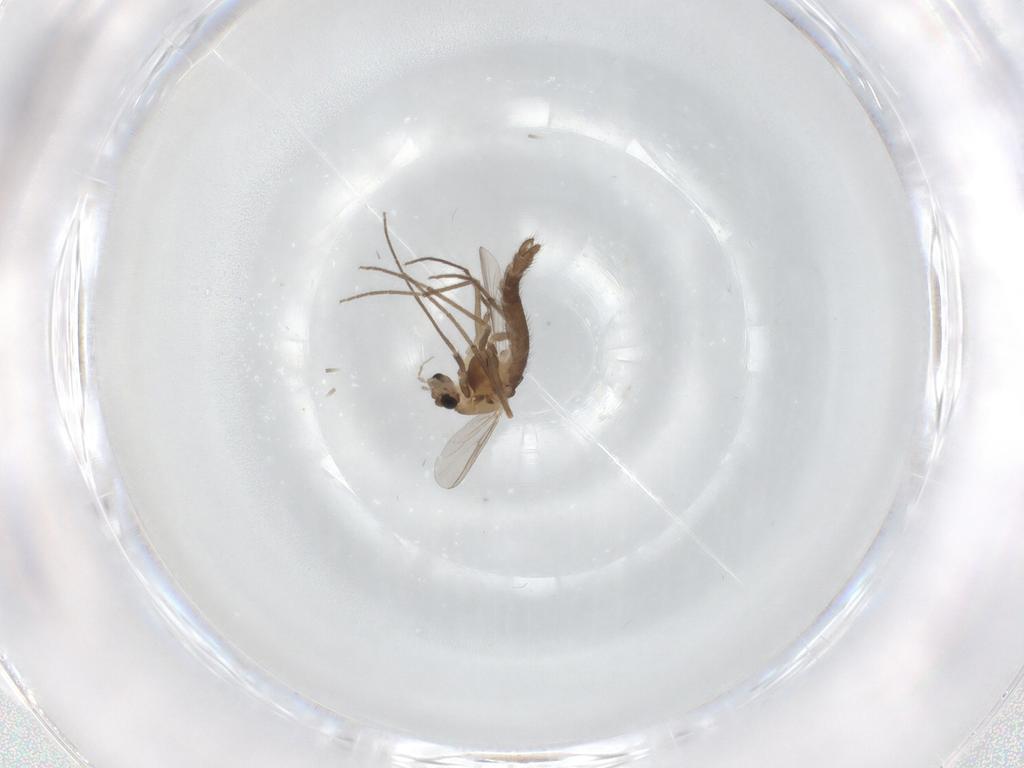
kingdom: Animalia
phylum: Arthropoda
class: Insecta
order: Diptera
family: Chironomidae
